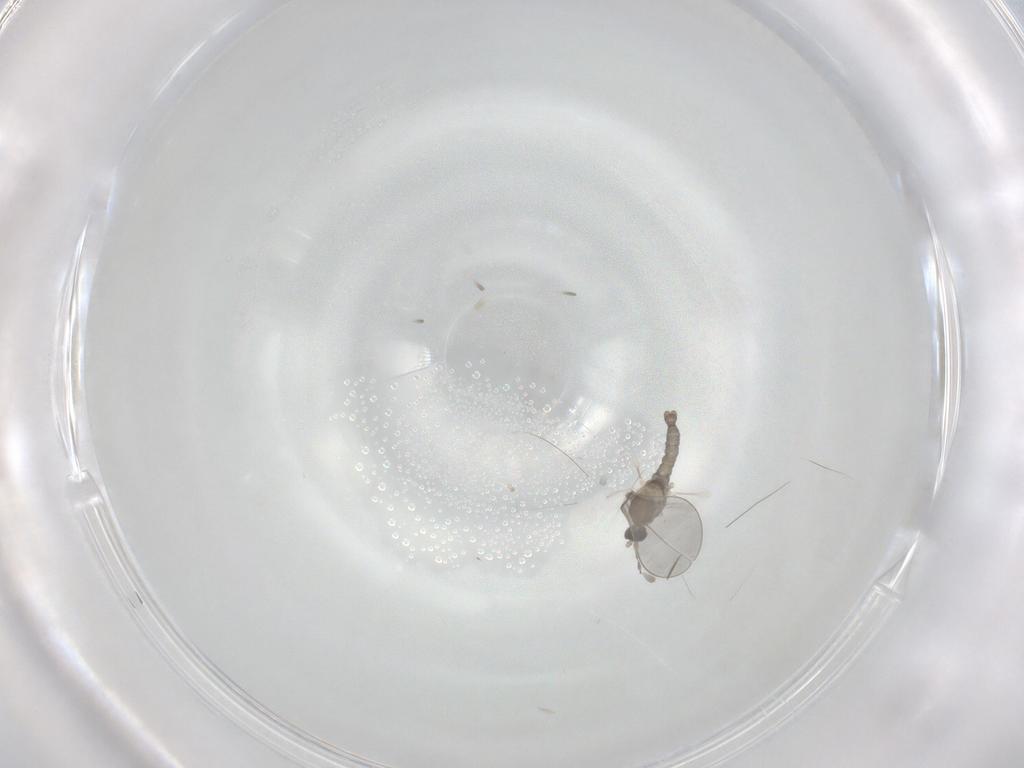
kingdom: Animalia
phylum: Arthropoda
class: Insecta
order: Diptera
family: Cecidomyiidae
